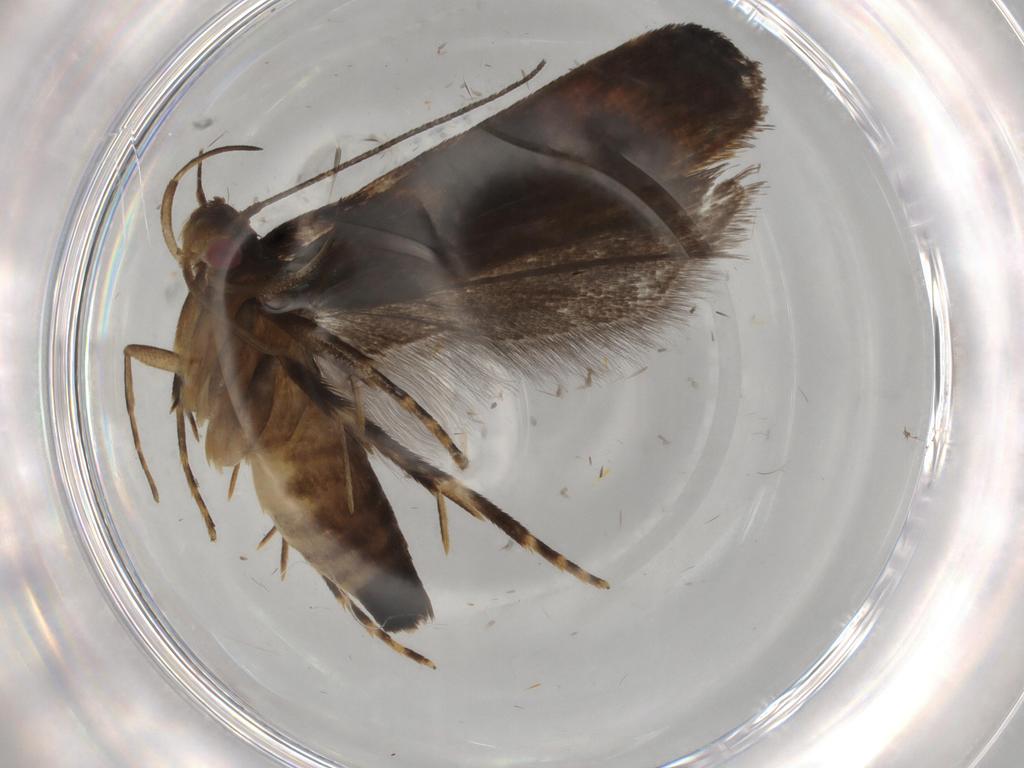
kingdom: Animalia
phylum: Arthropoda
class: Insecta
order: Lepidoptera
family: Gelechiidae
